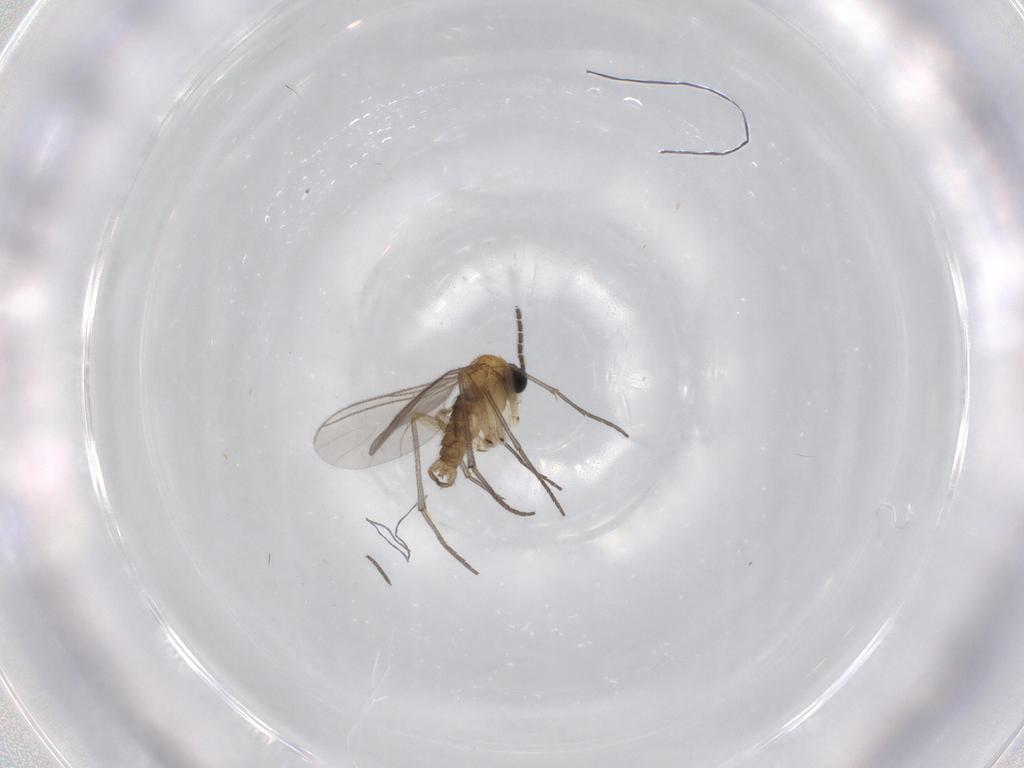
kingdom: Animalia
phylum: Arthropoda
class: Insecta
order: Diptera
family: Sciaridae
